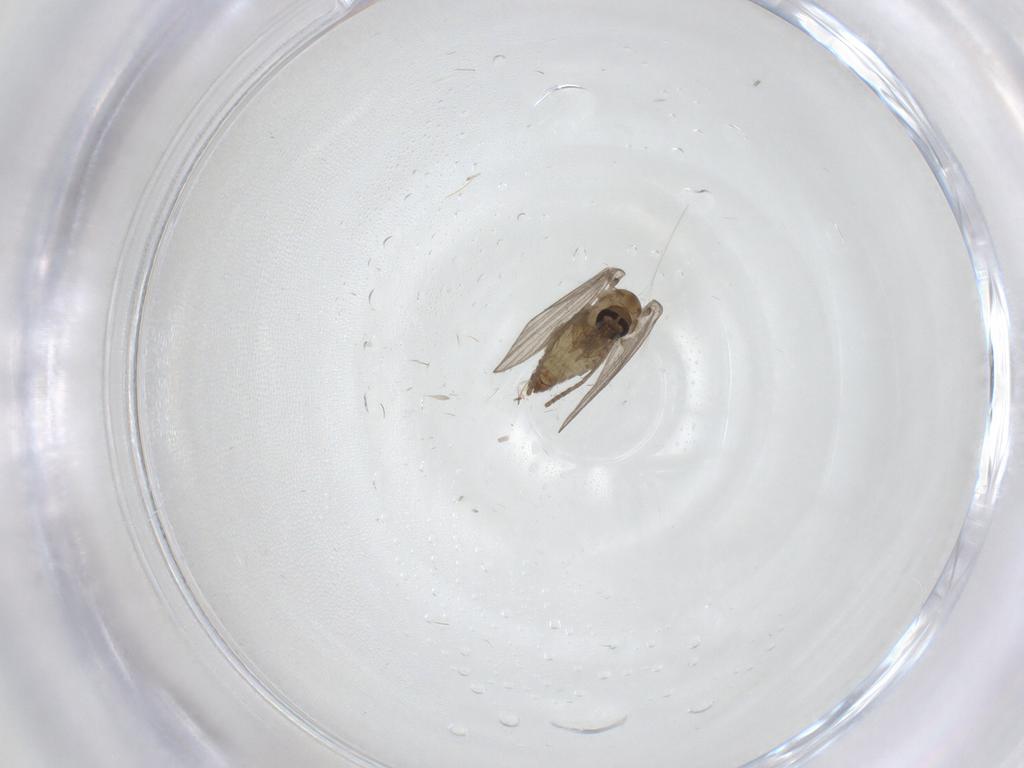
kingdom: Animalia
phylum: Arthropoda
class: Insecta
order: Diptera
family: Psychodidae
